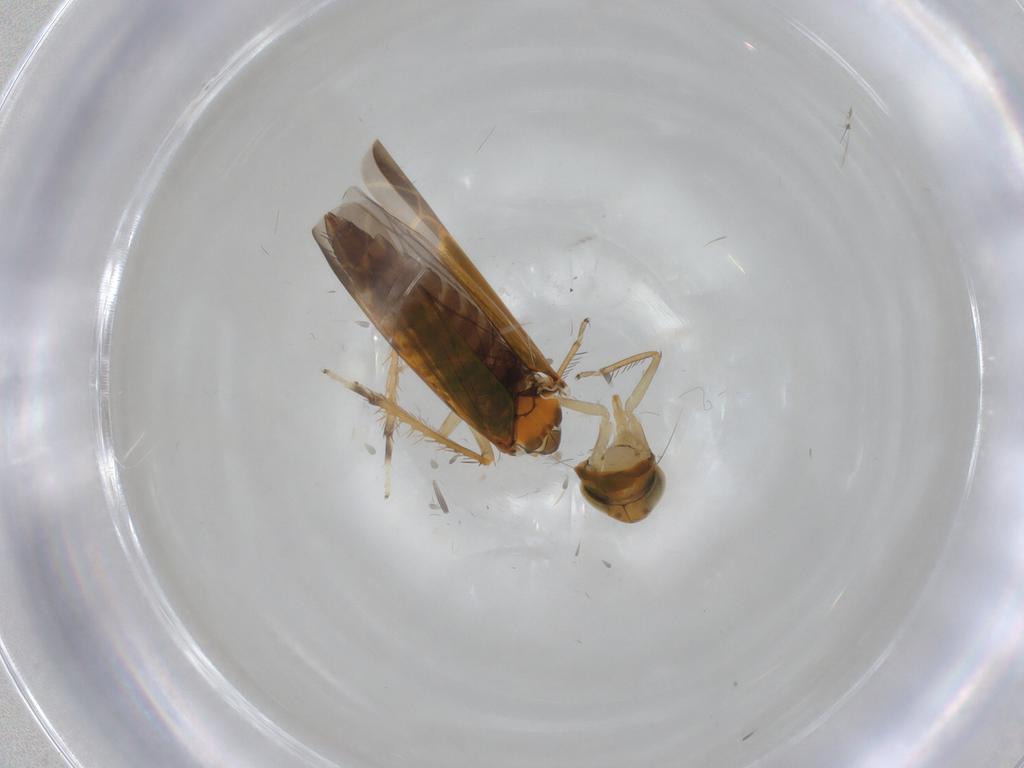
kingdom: Animalia
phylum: Arthropoda
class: Insecta
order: Hemiptera
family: Cicadellidae
